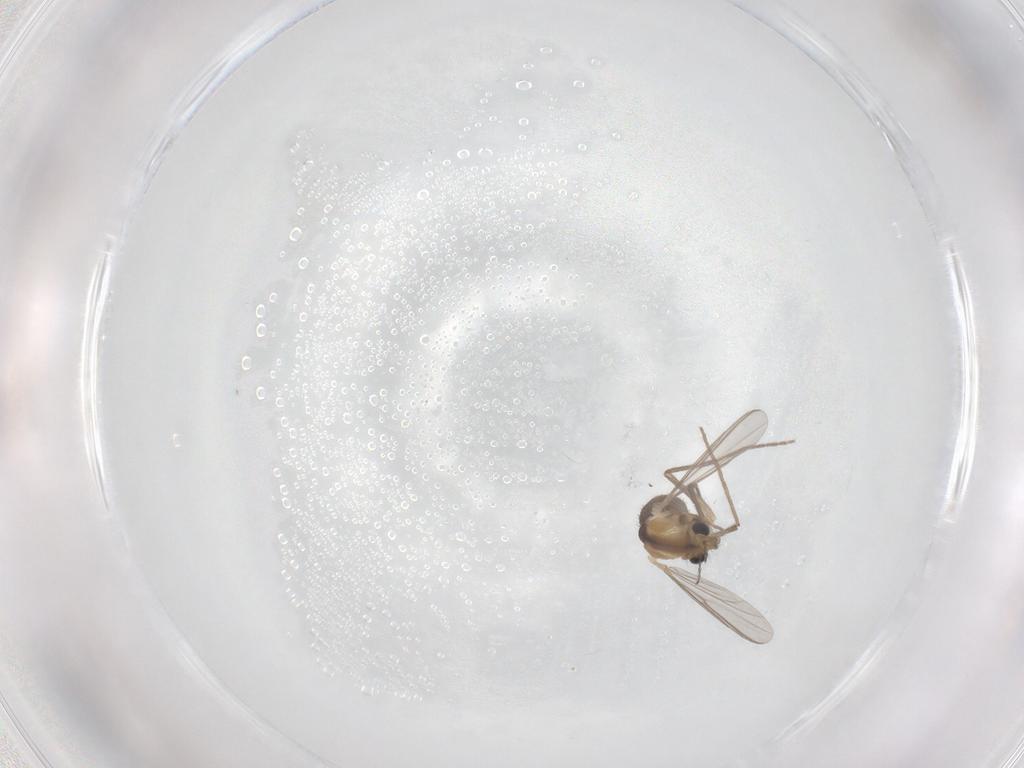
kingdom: Animalia
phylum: Arthropoda
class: Insecta
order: Diptera
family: Chironomidae
